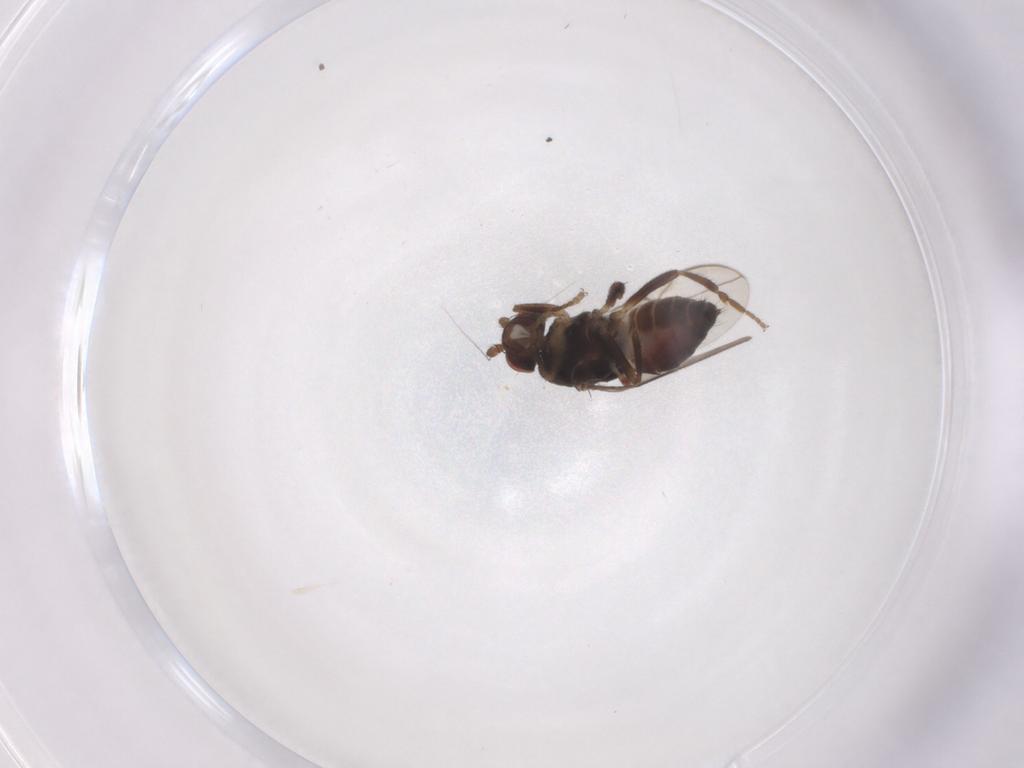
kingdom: Animalia
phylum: Arthropoda
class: Insecta
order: Diptera
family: Sphaeroceridae
